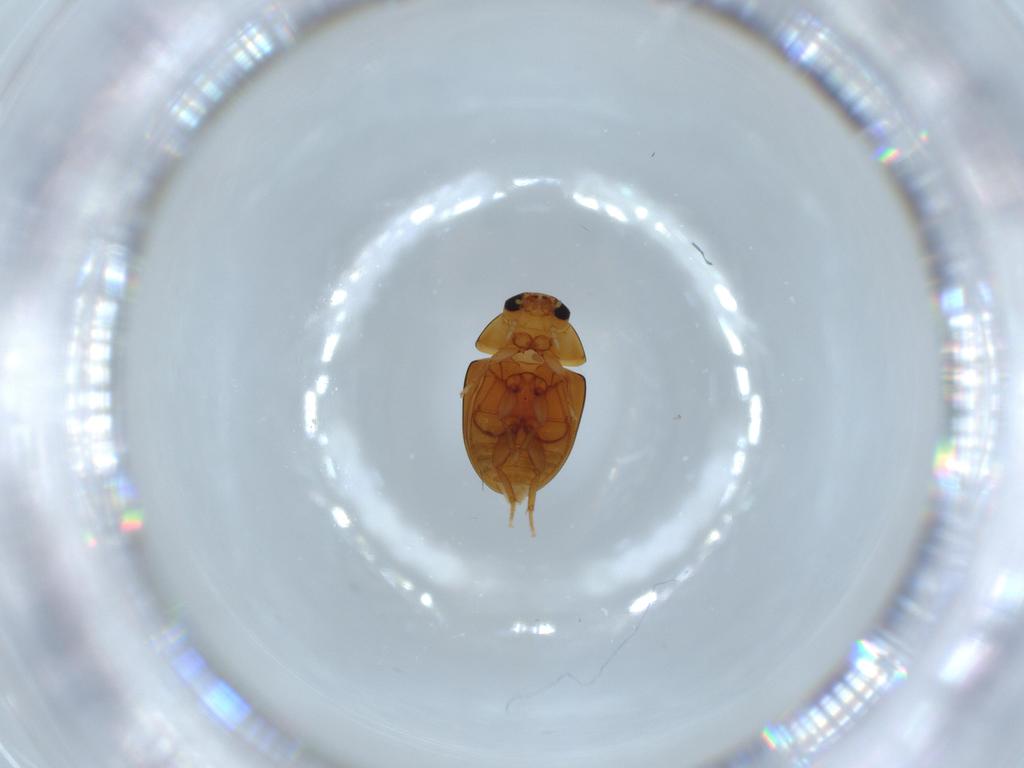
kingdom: Animalia
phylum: Arthropoda
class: Insecta
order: Coleoptera
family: Phalacridae
